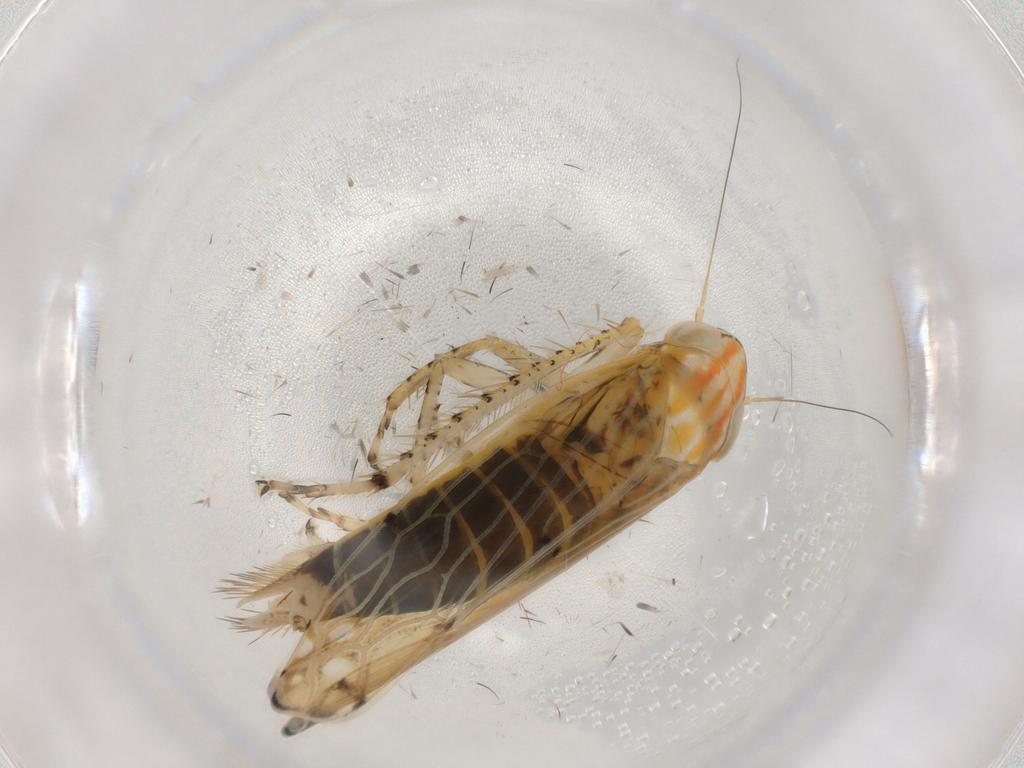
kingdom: Animalia
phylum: Arthropoda
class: Insecta
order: Hemiptera
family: Cicadellidae
